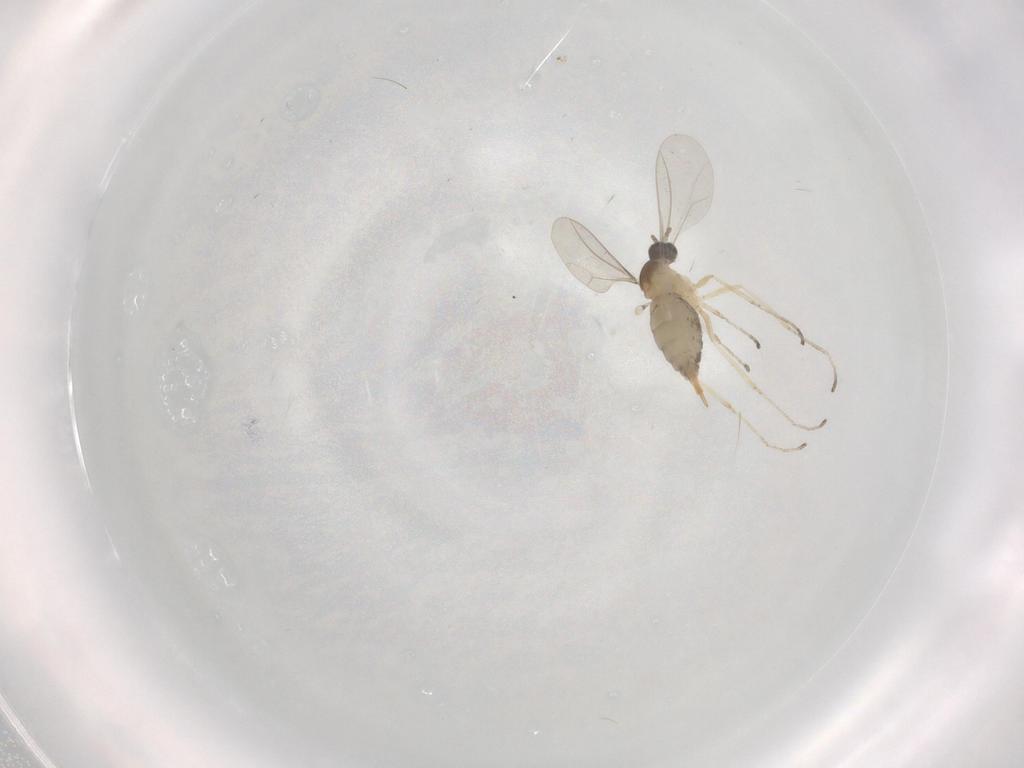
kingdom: Animalia
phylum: Arthropoda
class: Insecta
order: Diptera
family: Cecidomyiidae
